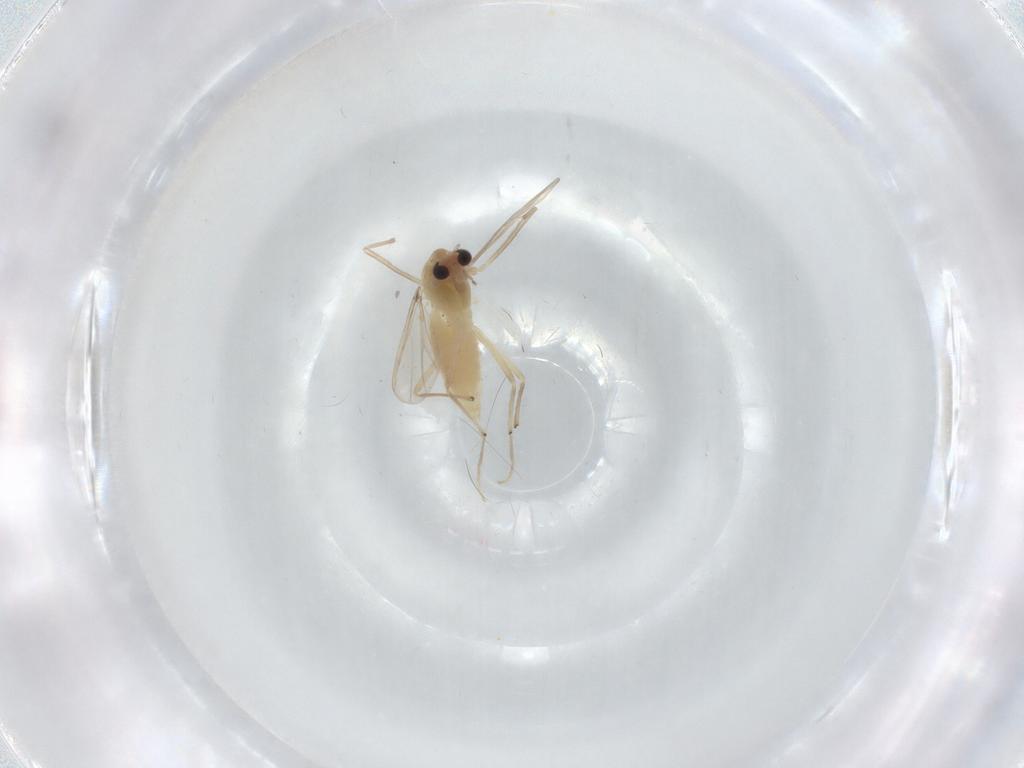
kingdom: Animalia
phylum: Arthropoda
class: Insecta
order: Diptera
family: Chironomidae
